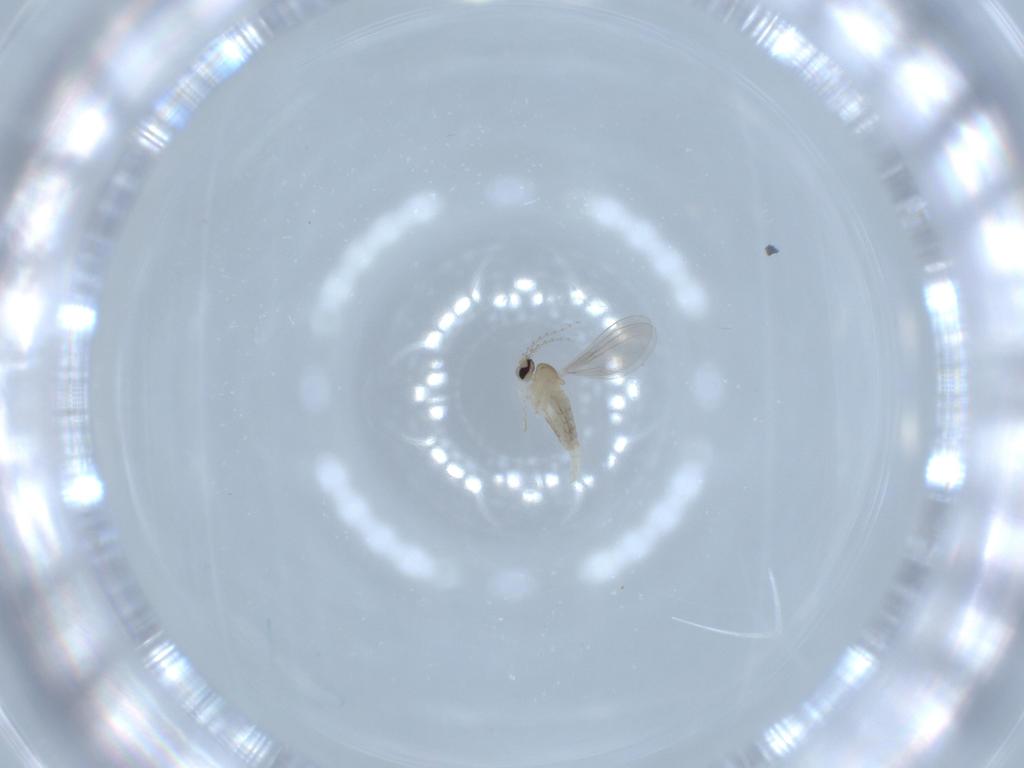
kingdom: Animalia
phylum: Arthropoda
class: Insecta
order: Diptera
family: Cecidomyiidae
